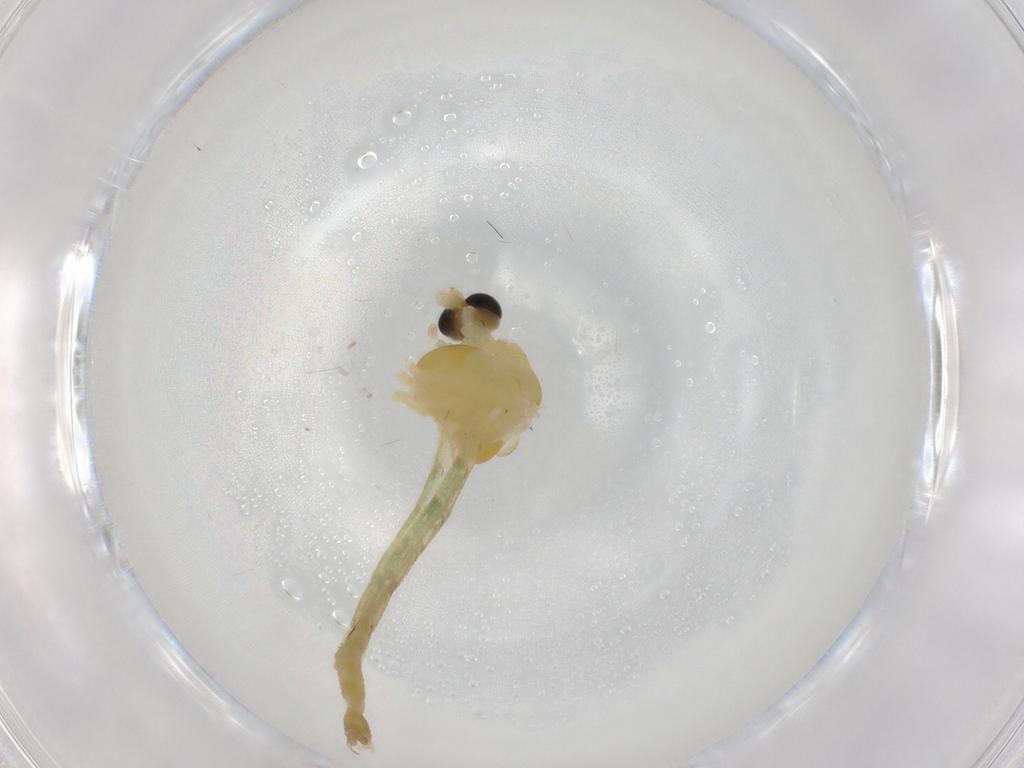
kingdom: Animalia
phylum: Arthropoda
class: Insecta
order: Diptera
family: Chironomidae
